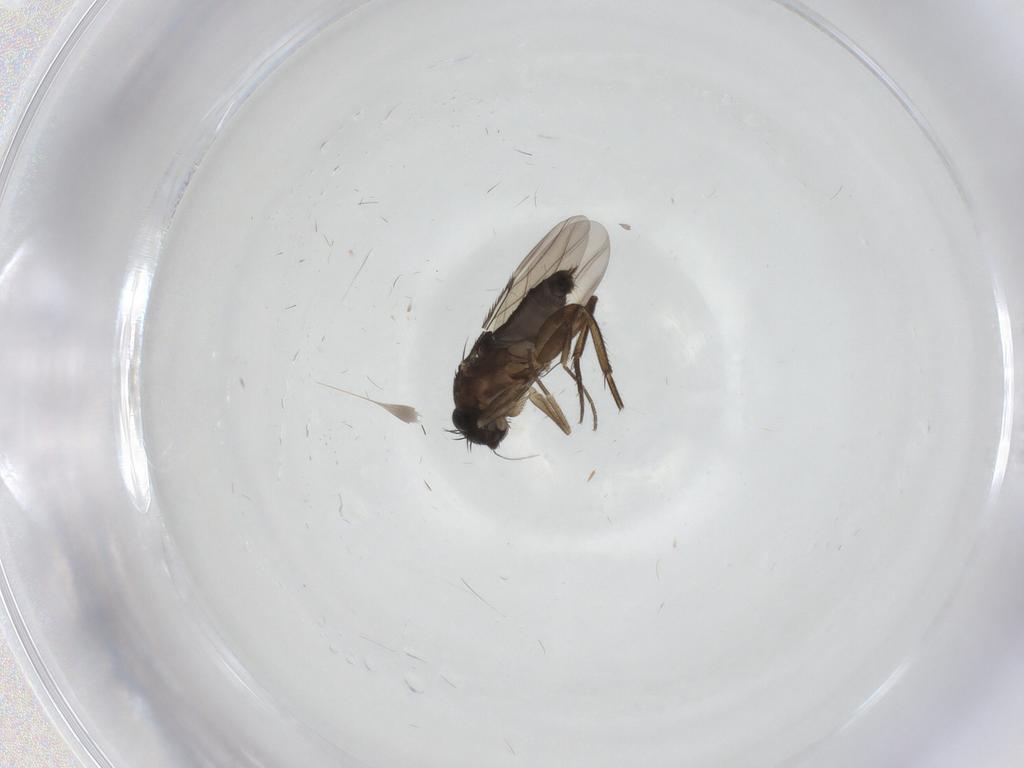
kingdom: Animalia
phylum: Arthropoda
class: Insecta
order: Diptera
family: Phoridae
